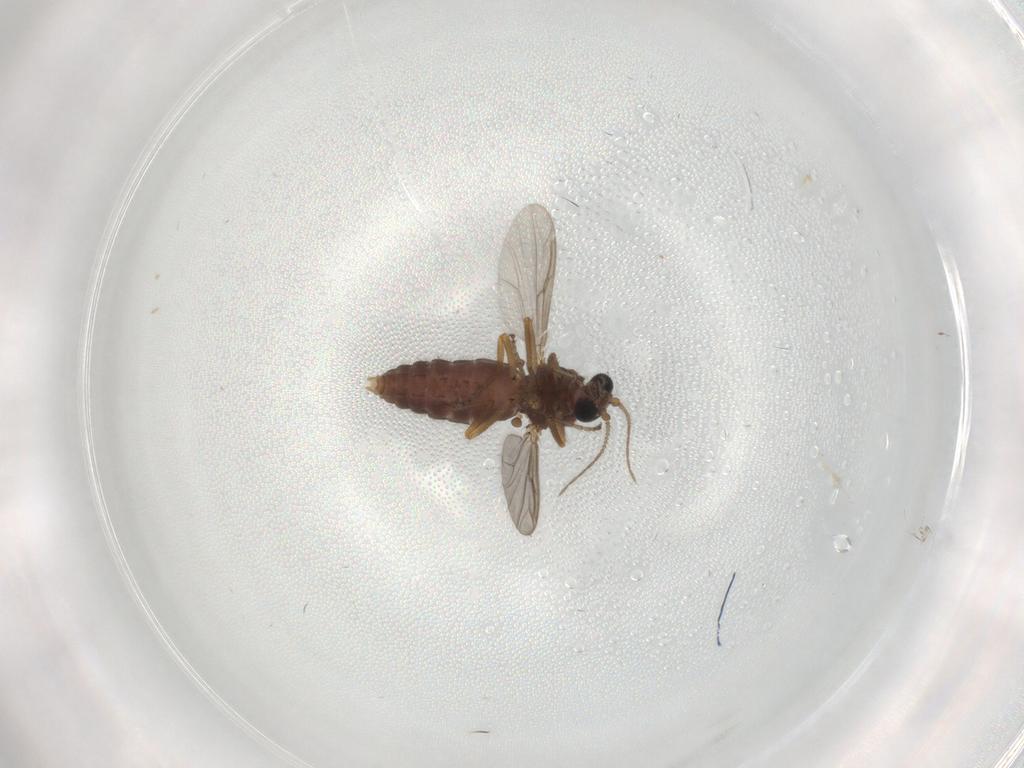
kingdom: Animalia
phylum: Arthropoda
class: Insecta
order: Diptera
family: Ceratopogonidae
